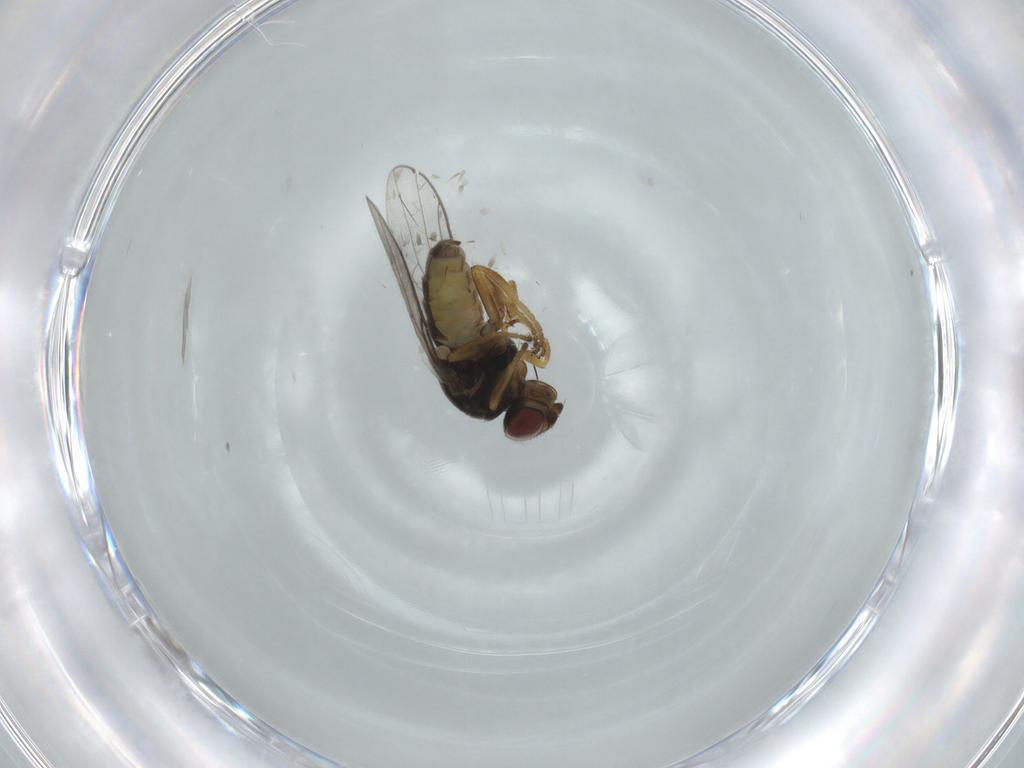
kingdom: Animalia
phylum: Arthropoda
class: Insecta
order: Diptera
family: Chloropidae
